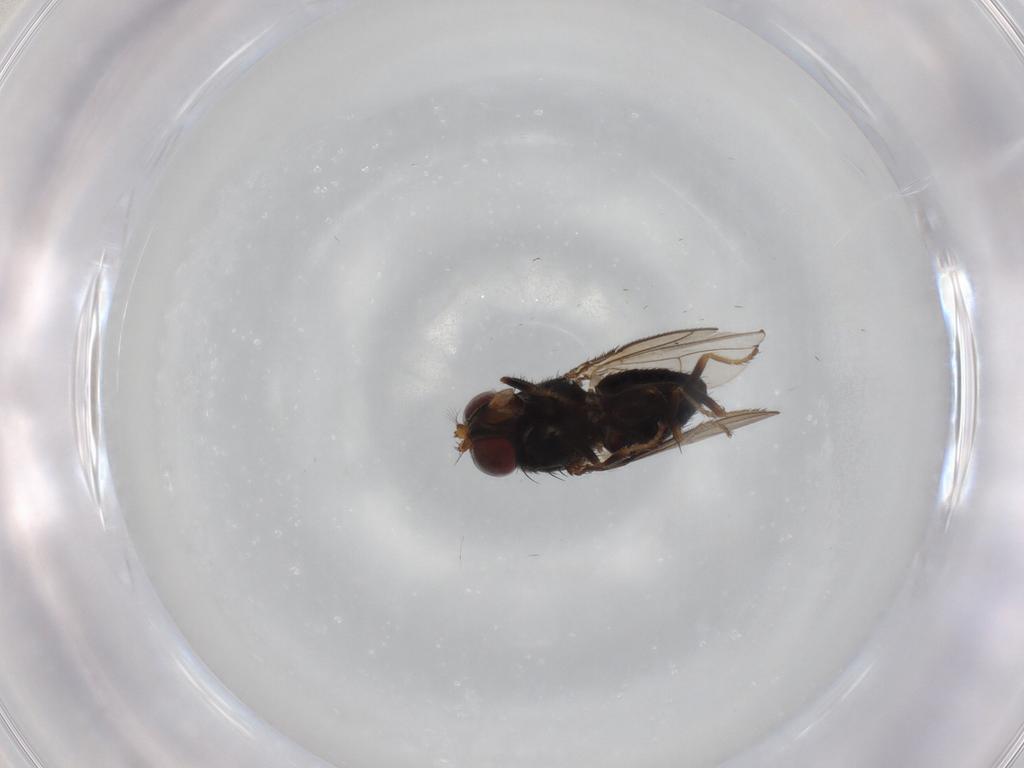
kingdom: Animalia
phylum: Arthropoda
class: Insecta
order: Diptera
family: Ephydridae
